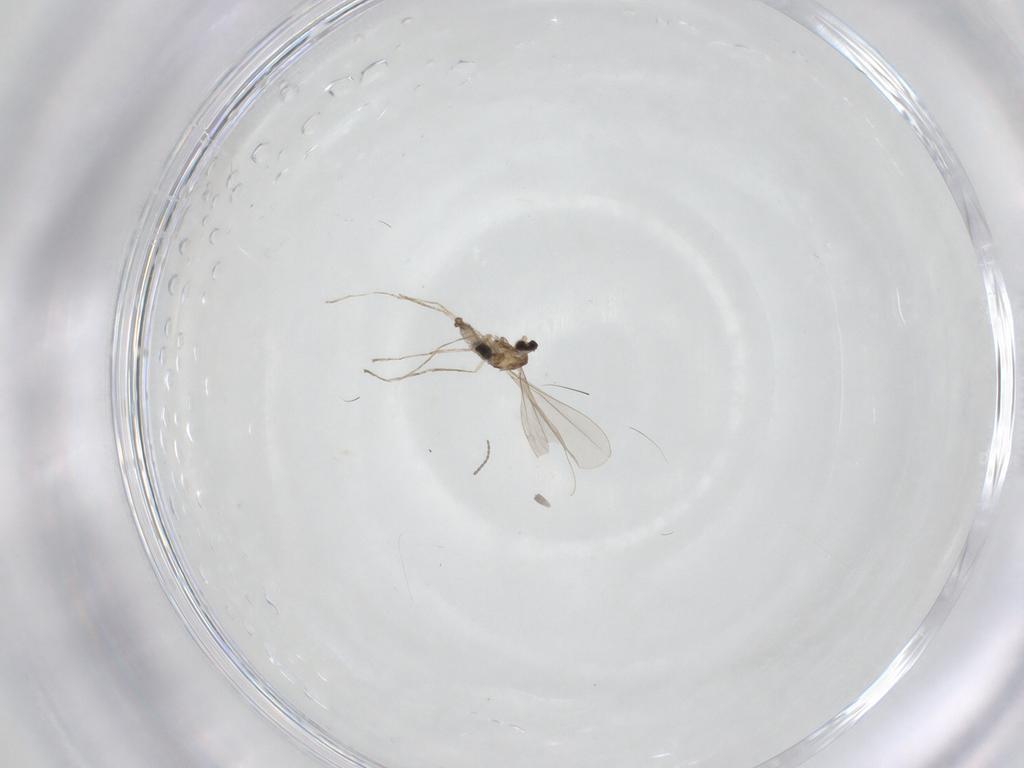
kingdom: Animalia
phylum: Arthropoda
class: Insecta
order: Diptera
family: Cecidomyiidae
